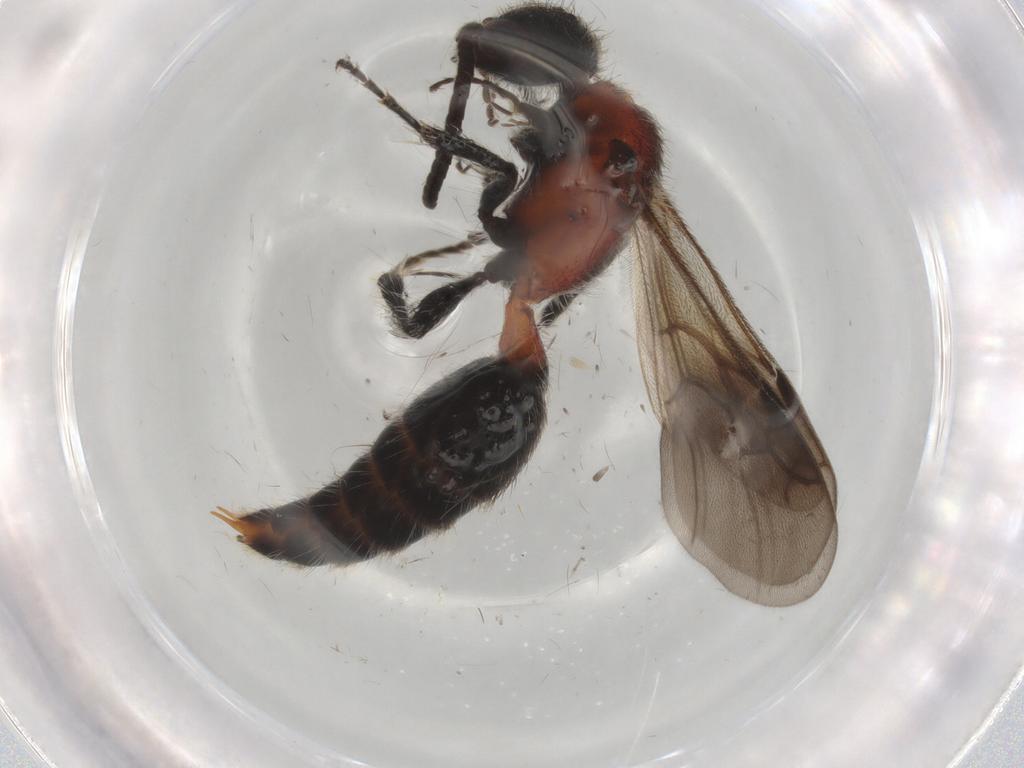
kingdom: Animalia
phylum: Arthropoda
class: Insecta
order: Hymenoptera
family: Mutillidae
